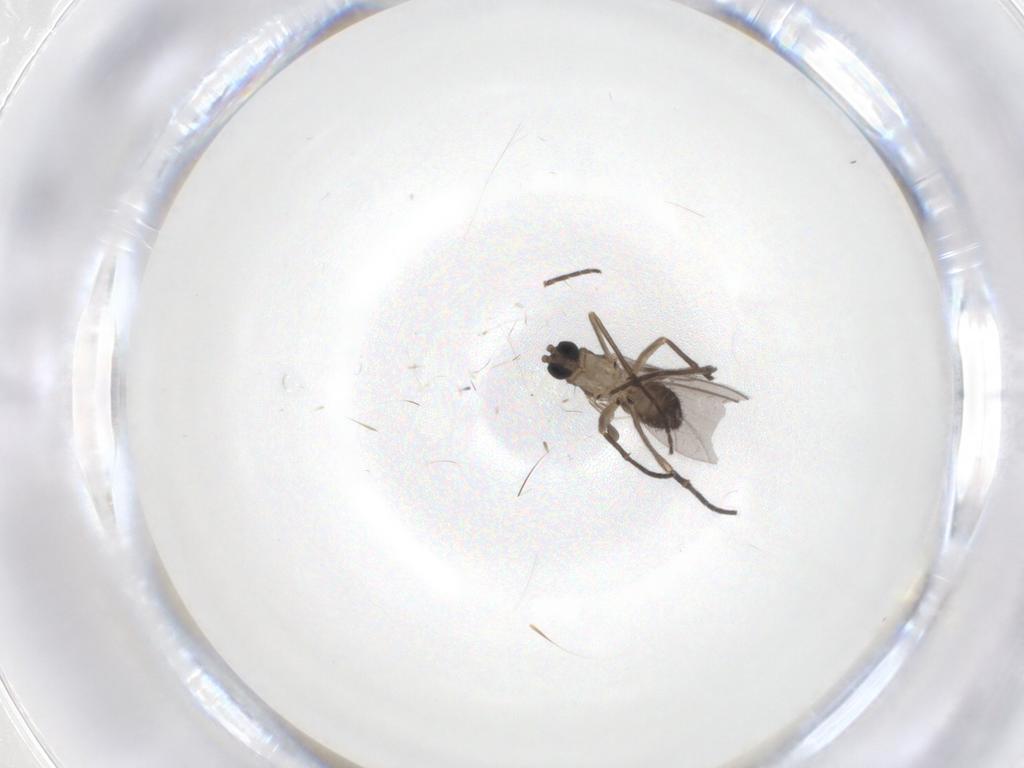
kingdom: Animalia
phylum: Arthropoda
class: Insecta
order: Diptera
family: Sciaridae
